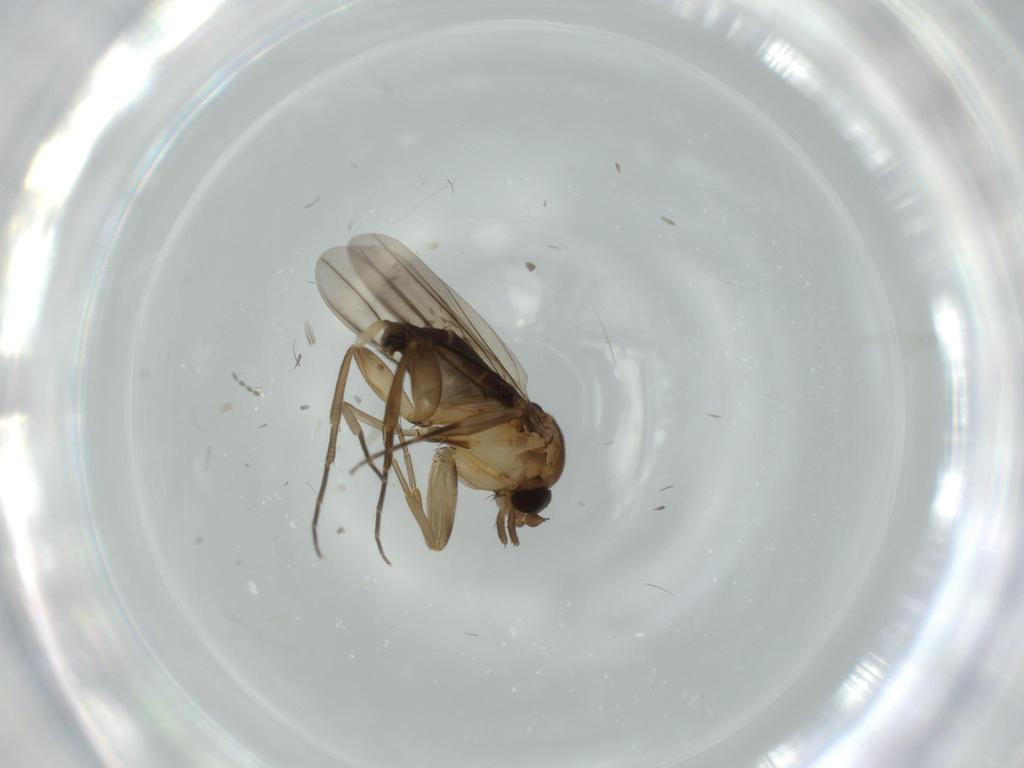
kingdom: Animalia
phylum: Arthropoda
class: Insecta
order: Diptera
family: Phoridae
